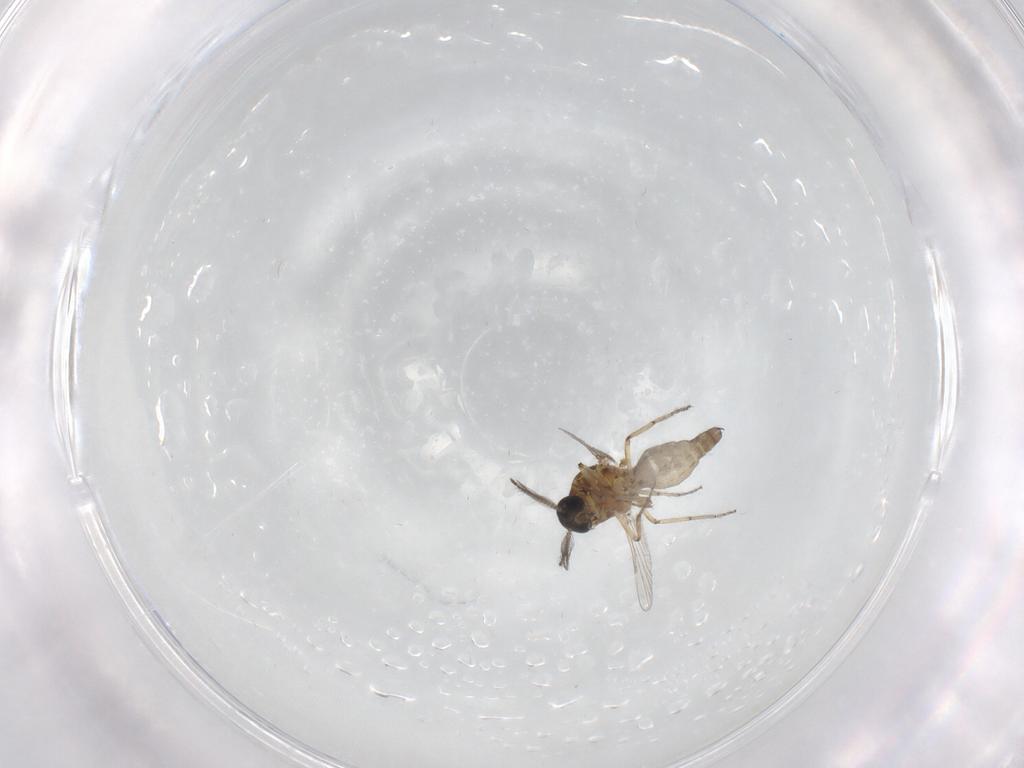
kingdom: Animalia
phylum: Arthropoda
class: Insecta
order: Diptera
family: Ceratopogonidae
